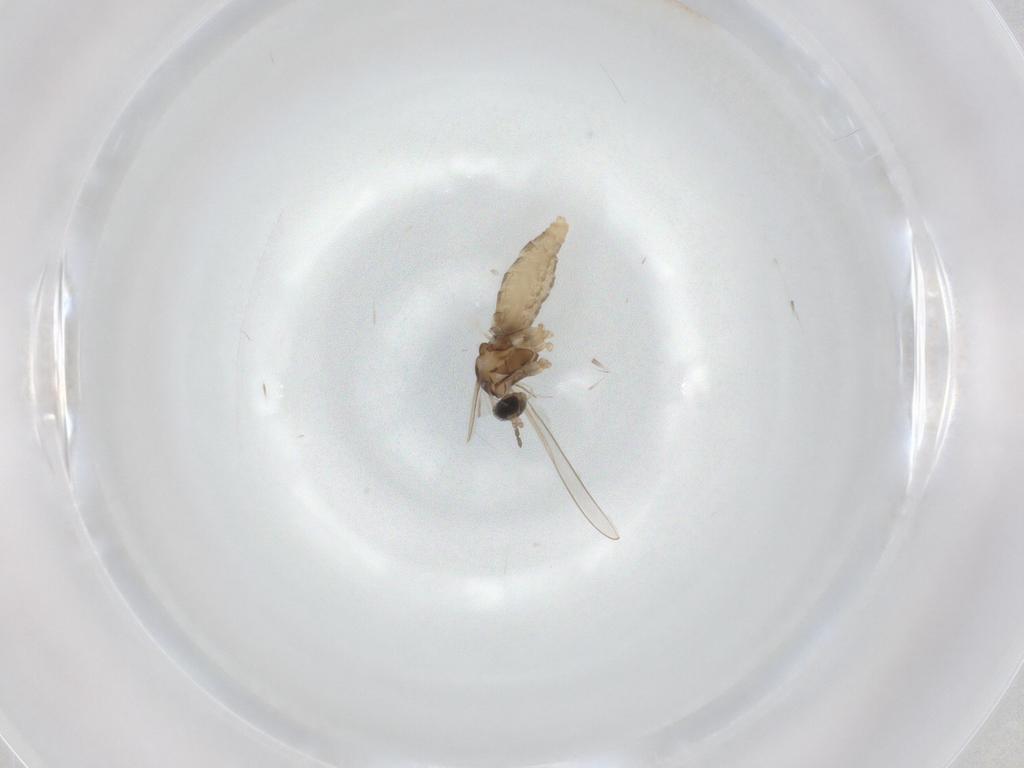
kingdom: Animalia
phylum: Arthropoda
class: Insecta
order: Diptera
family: Cecidomyiidae
